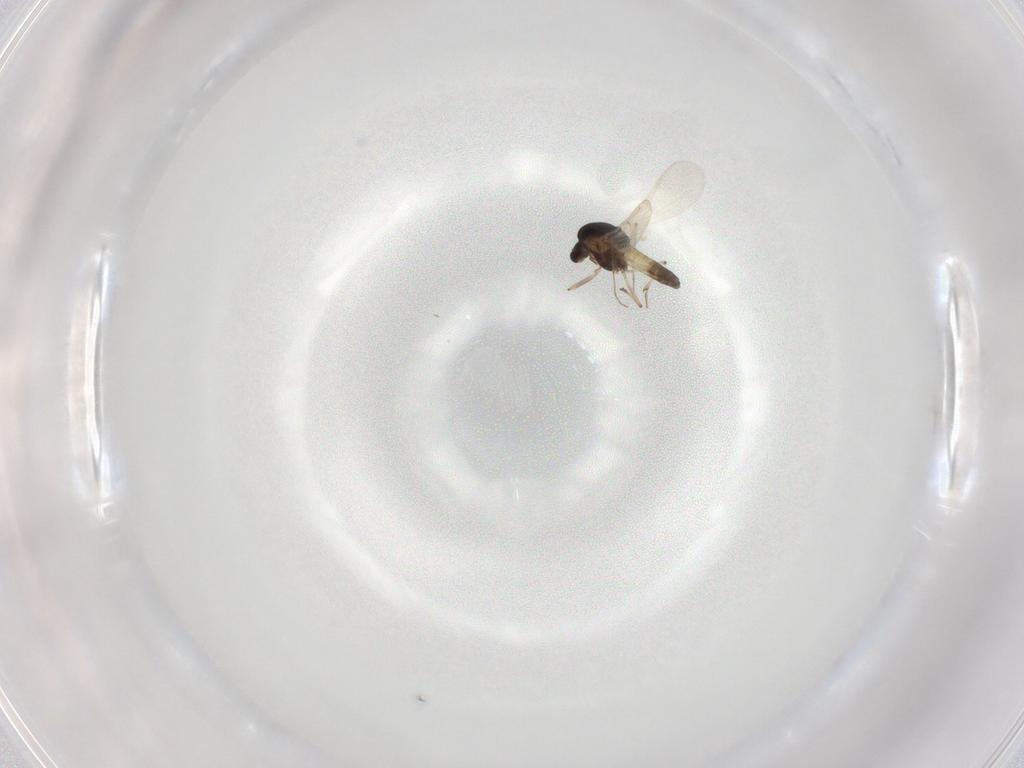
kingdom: Animalia
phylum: Arthropoda
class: Insecta
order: Diptera
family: Chironomidae
